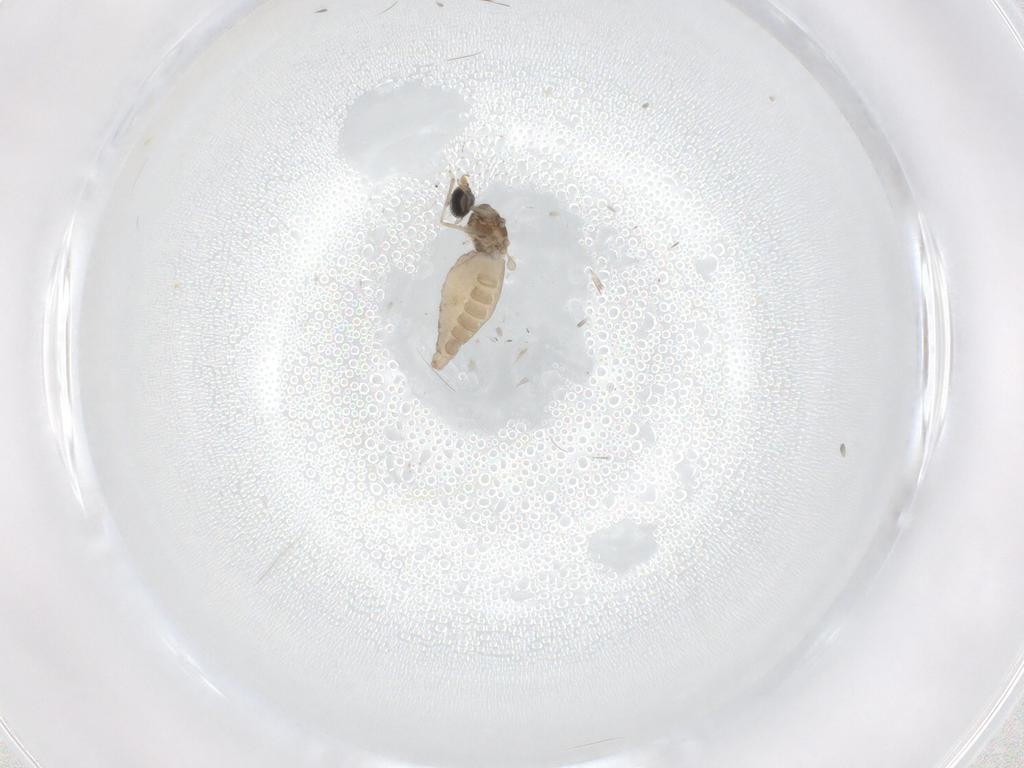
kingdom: Animalia
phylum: Arthropoda
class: Insecta
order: Diptera
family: Cecidomyiidae
